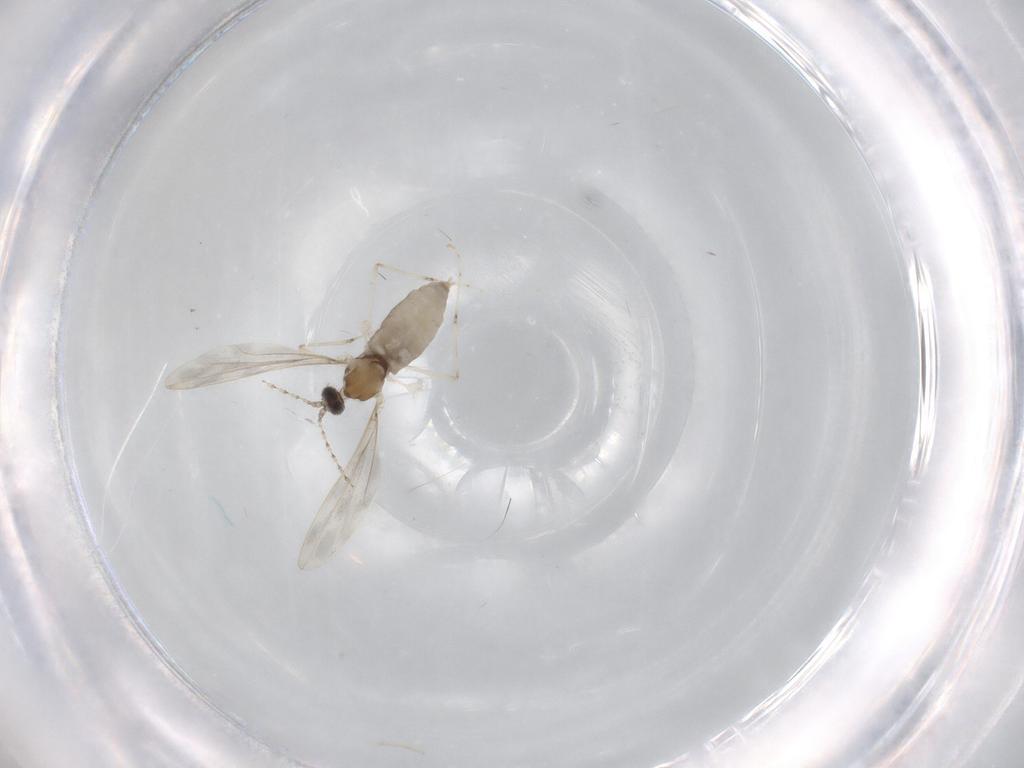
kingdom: Animalia
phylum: Arthropoda
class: Insecta
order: Diptera
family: Cecidomyiidae
